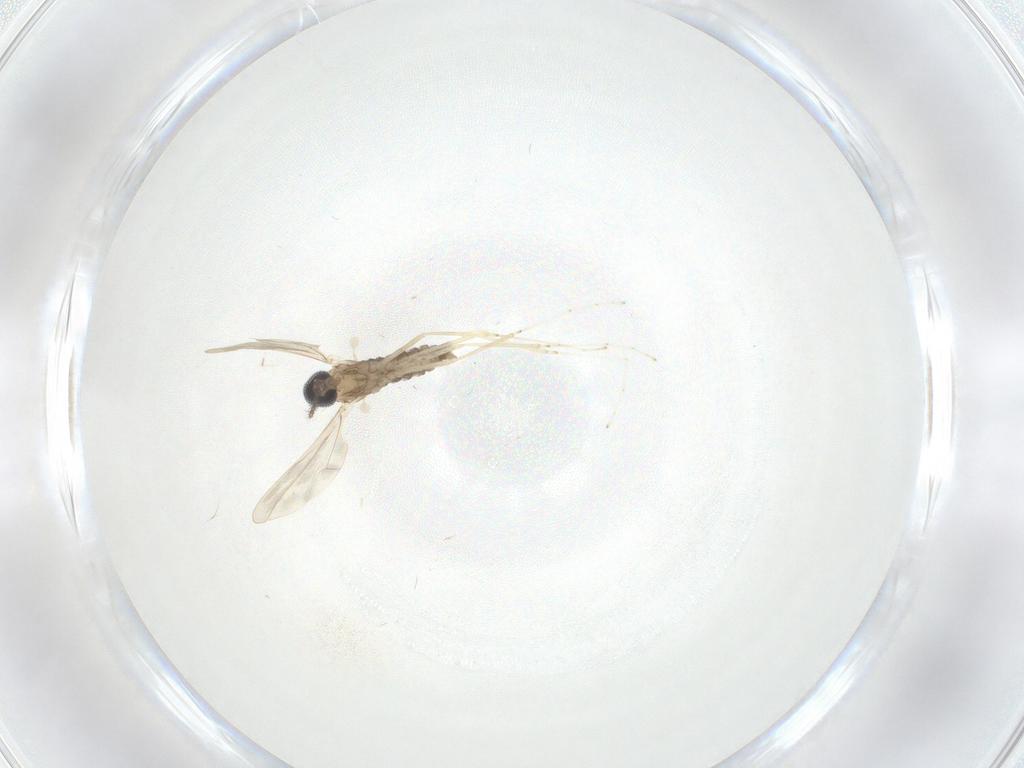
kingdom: Animalia
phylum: Arthropoda
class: Insecta
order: Diptera
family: Cecidomyiidae
